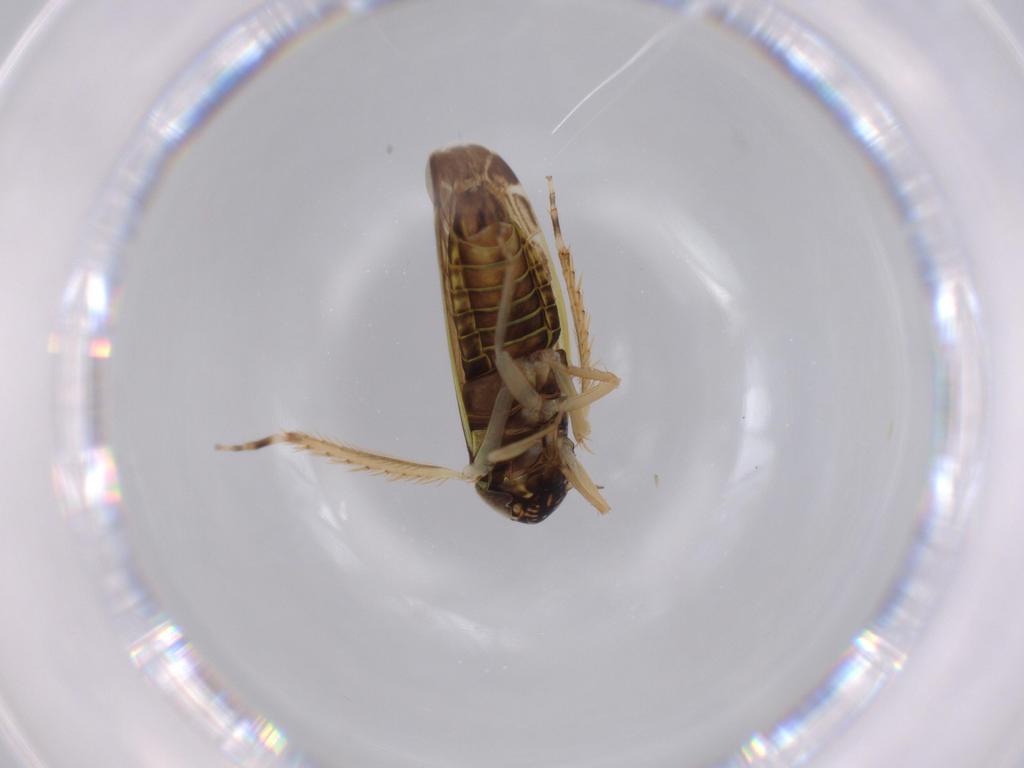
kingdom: Animalia
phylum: Arthropoda
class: Insecta
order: Hemiptera
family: Cicadellidae
